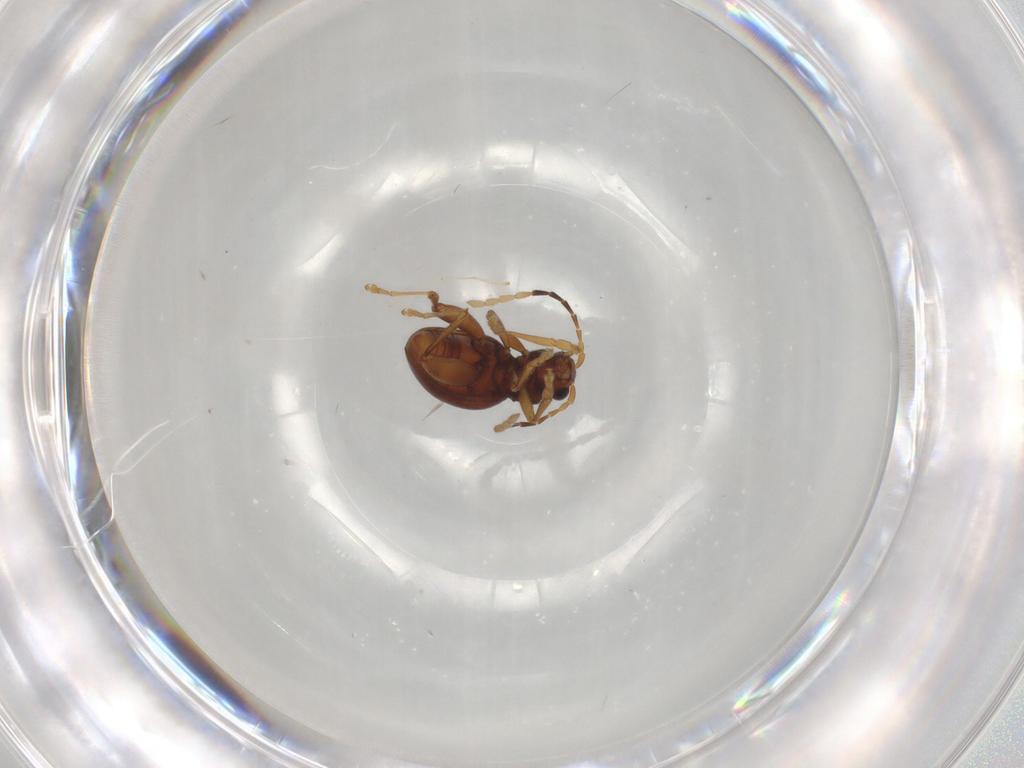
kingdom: Animalia
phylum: Arthropoda
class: Insecta
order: Coleoptera
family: Chrysomelidae
